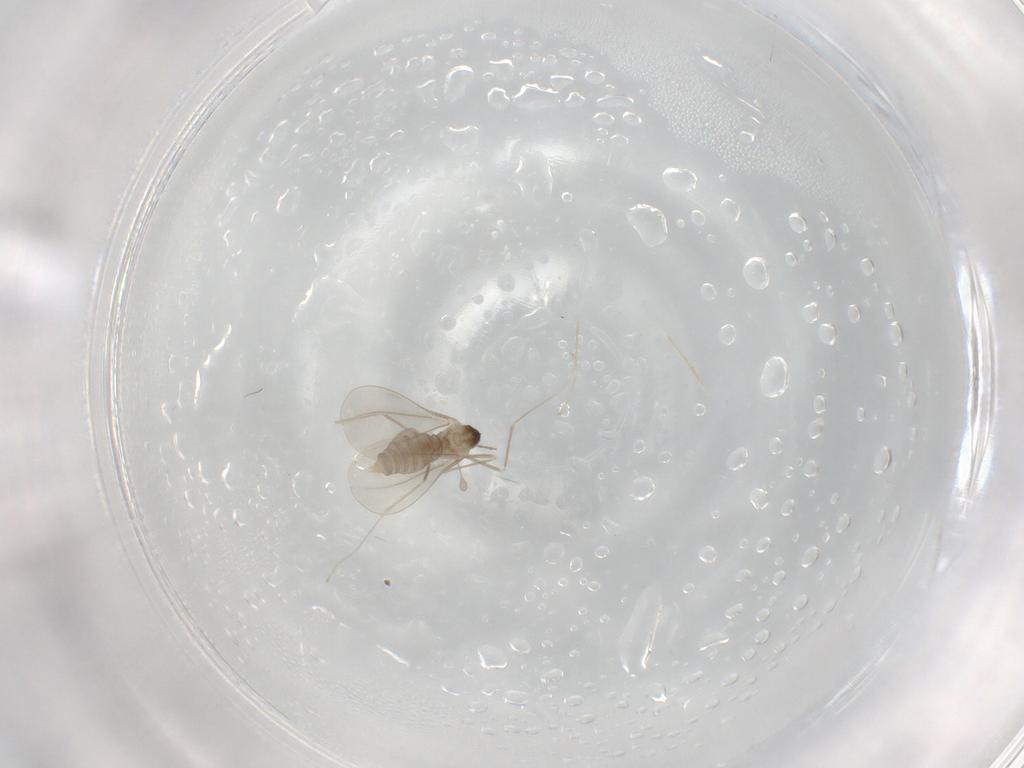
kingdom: Animalia
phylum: Arthropoda
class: Insecta
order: Diptera
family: Cecidomyiidae
